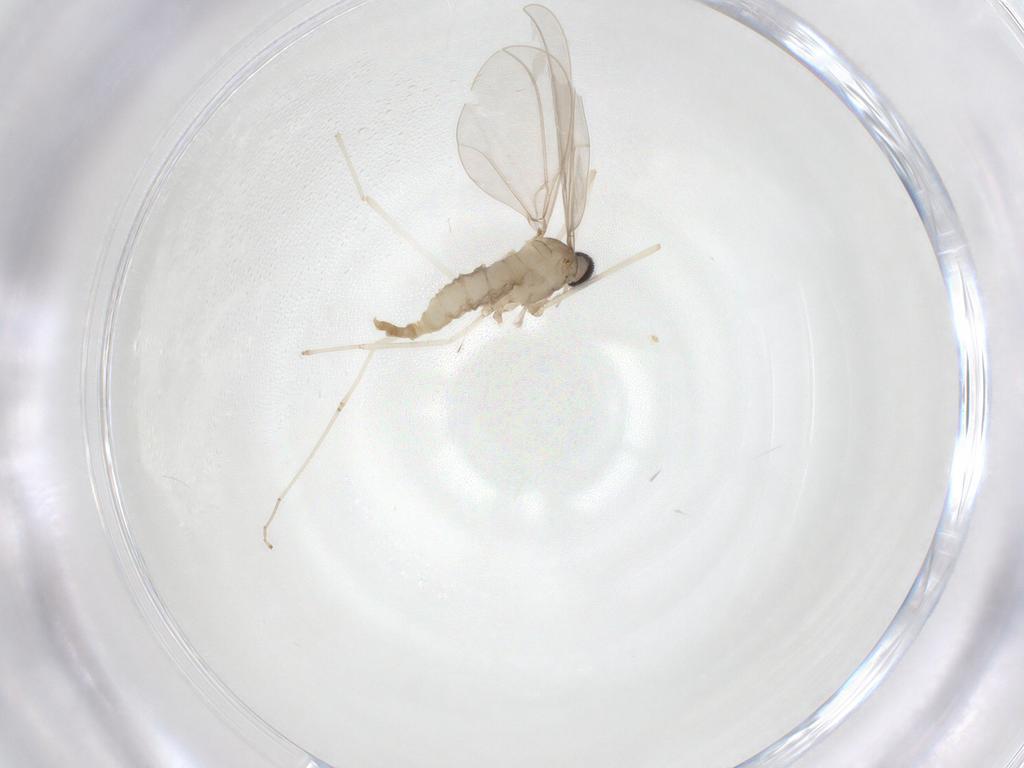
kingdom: Animalia
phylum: Arthropoda
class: Insecta
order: Diptera
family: Cecidomyiidae
